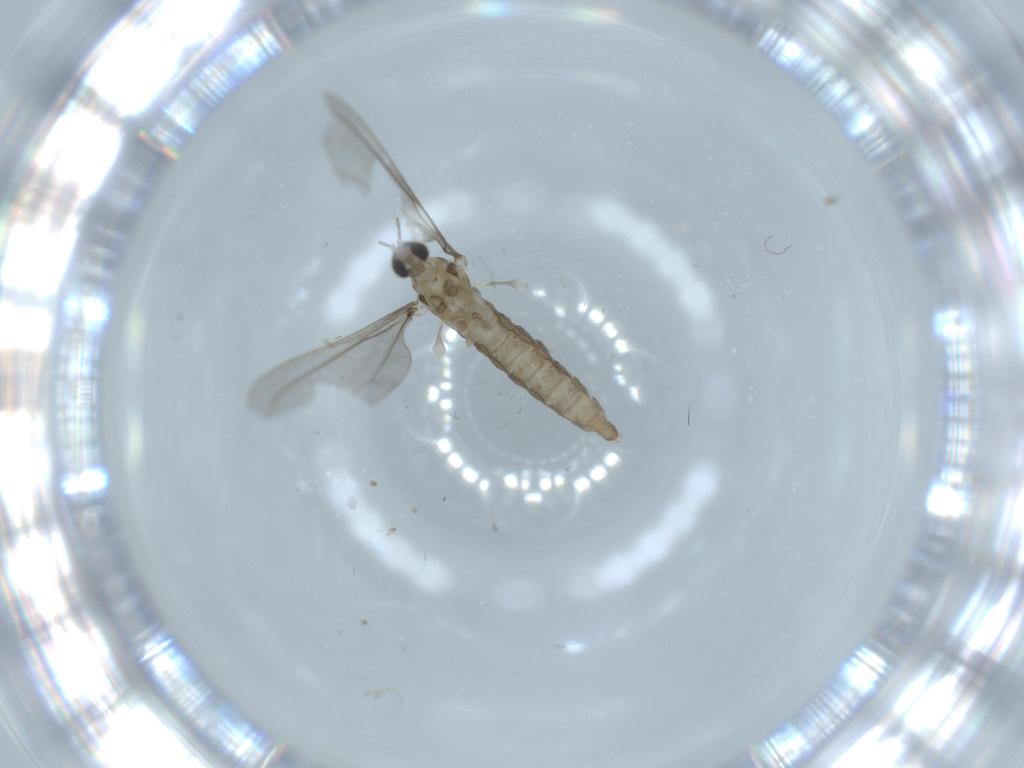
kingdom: Animalia
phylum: Arthropoda
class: Insecta
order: Diptera
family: Cecidomyiidae
